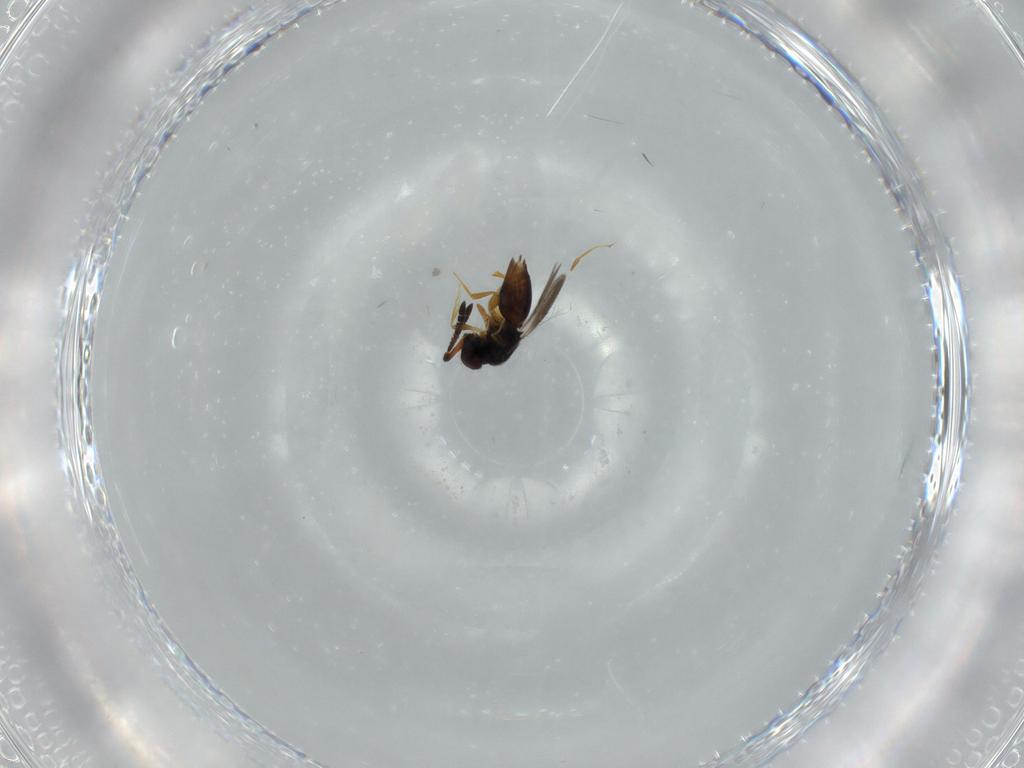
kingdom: Animalia
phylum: Arthropoda
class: Insecta
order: Hymenoptera
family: Ceraphronidae
